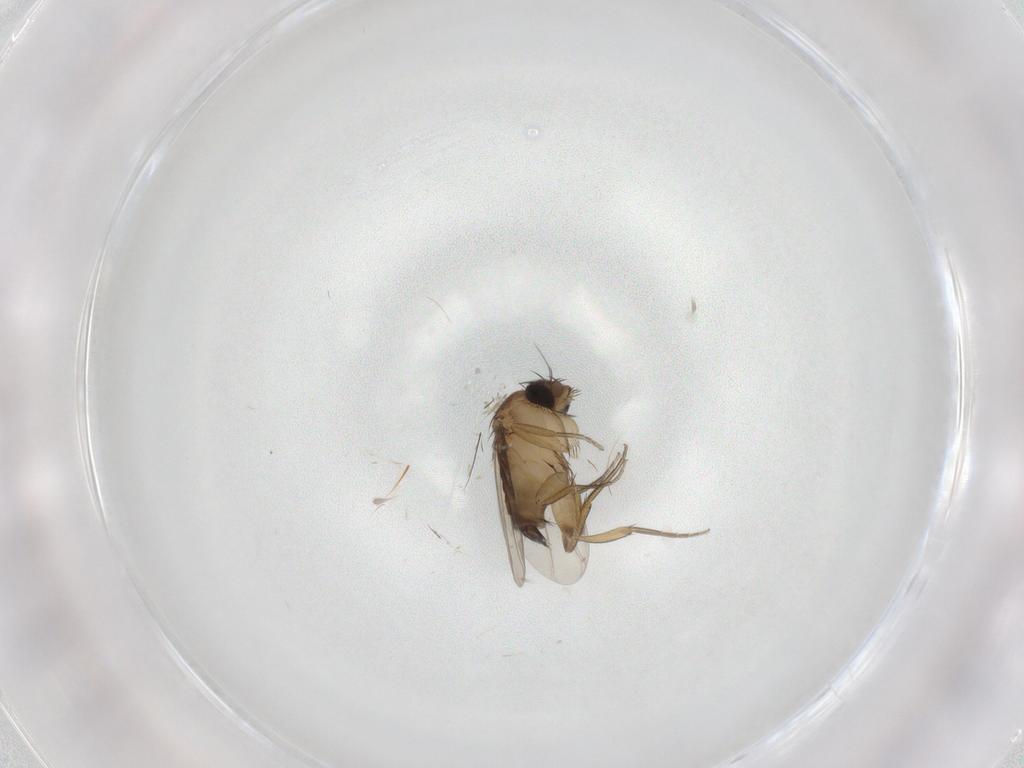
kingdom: Animalia
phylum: Arthropoda
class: Insecta
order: Diptera
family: Phoridae
